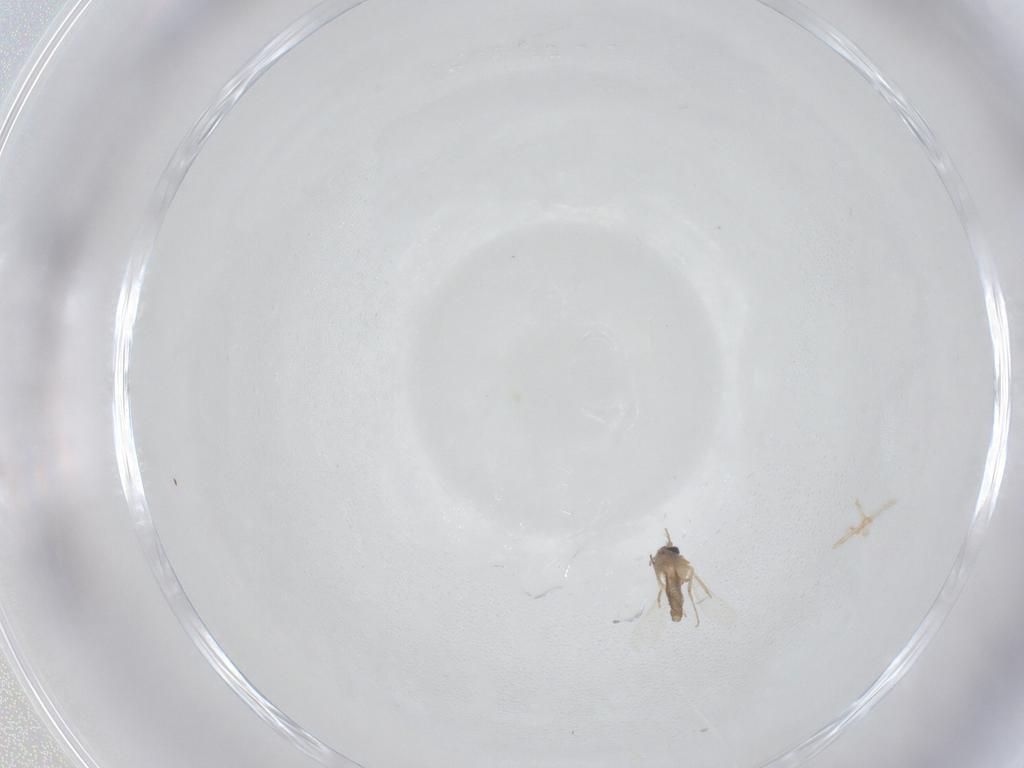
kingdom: Animalia
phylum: Arthropoda
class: Insecta
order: Diptera
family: Ceratopogonidae
